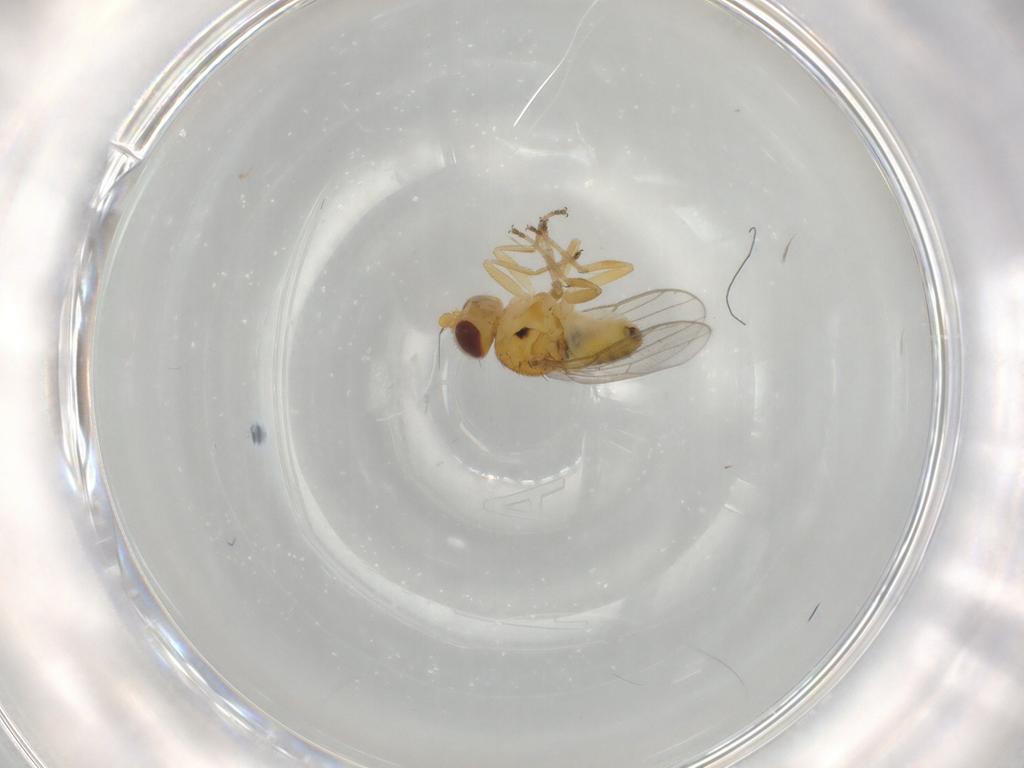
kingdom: Animalia
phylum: Arthropoda
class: Insecta
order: Diptera
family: Chloropidae
